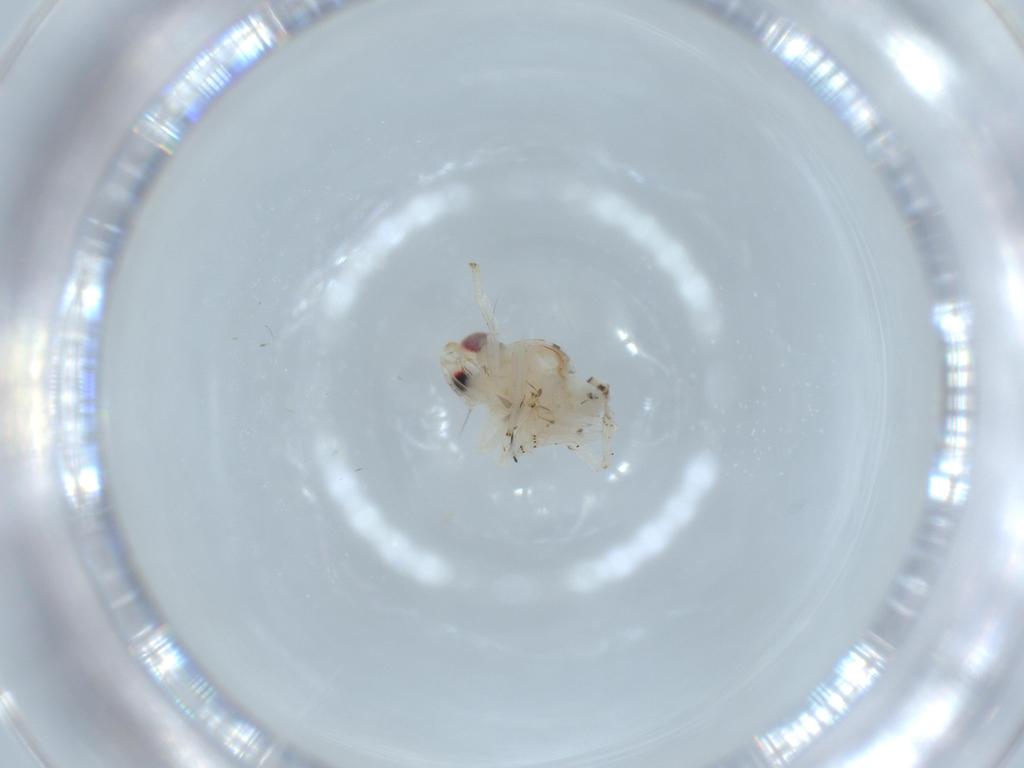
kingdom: Animalia
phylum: Arthropoda
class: Insecta
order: Hemiptera
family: Nogodinidae
